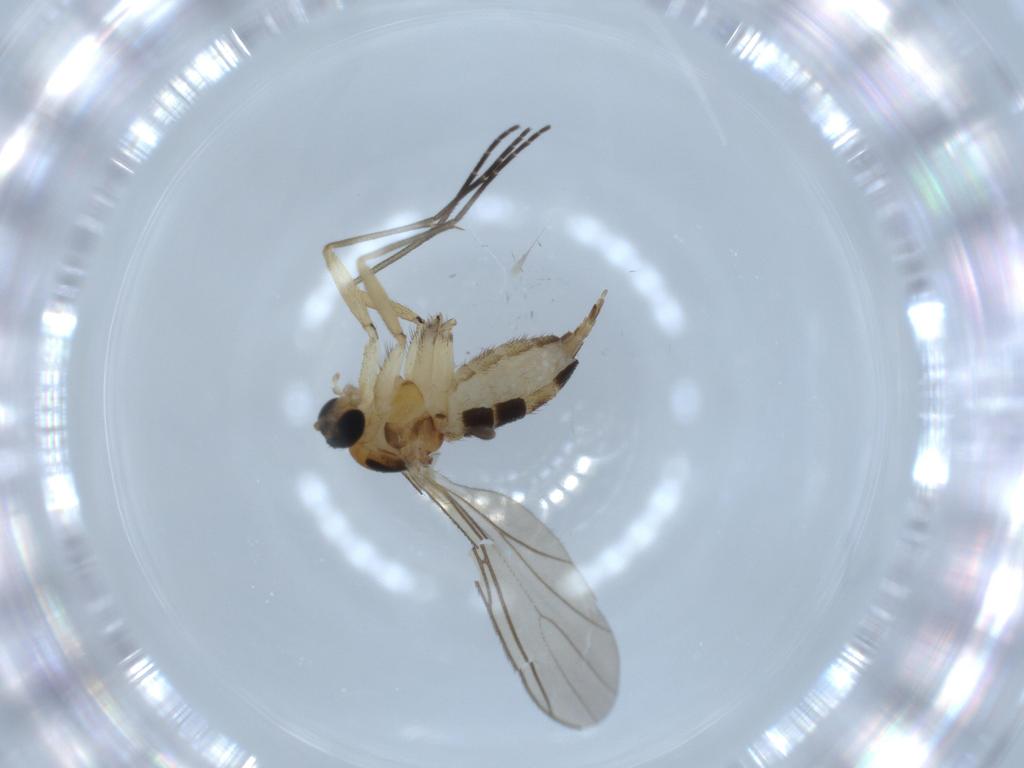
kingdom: Animalia
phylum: Arthropoda
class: Insecta
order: Diptera
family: Sciaridae
